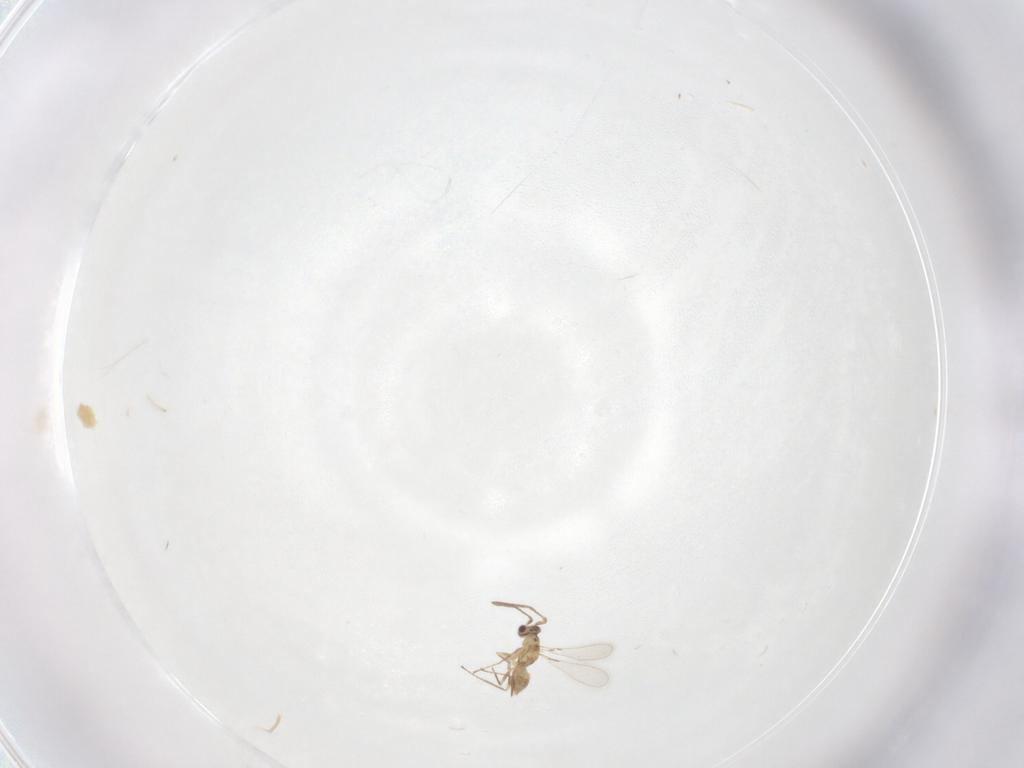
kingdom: Animalia
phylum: Arthropoda
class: Insecta
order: Hymenoptera
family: Mymaridae
